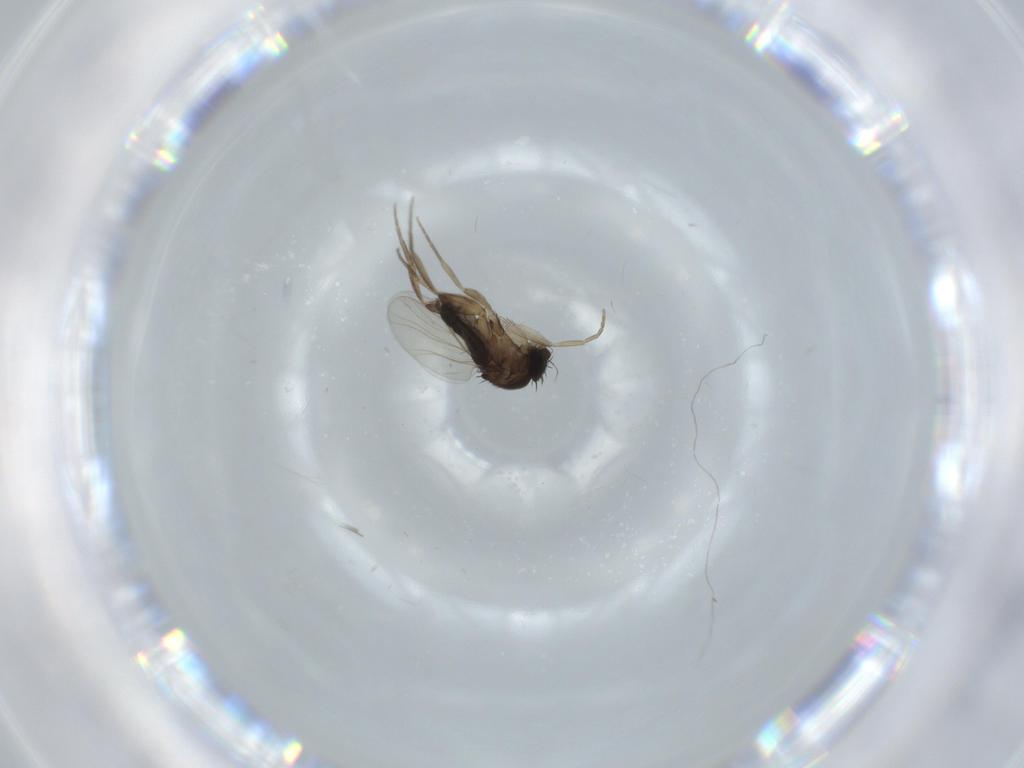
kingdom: Animalia
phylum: Arthropoda
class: Insecta
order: Diptera
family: Phoridae
